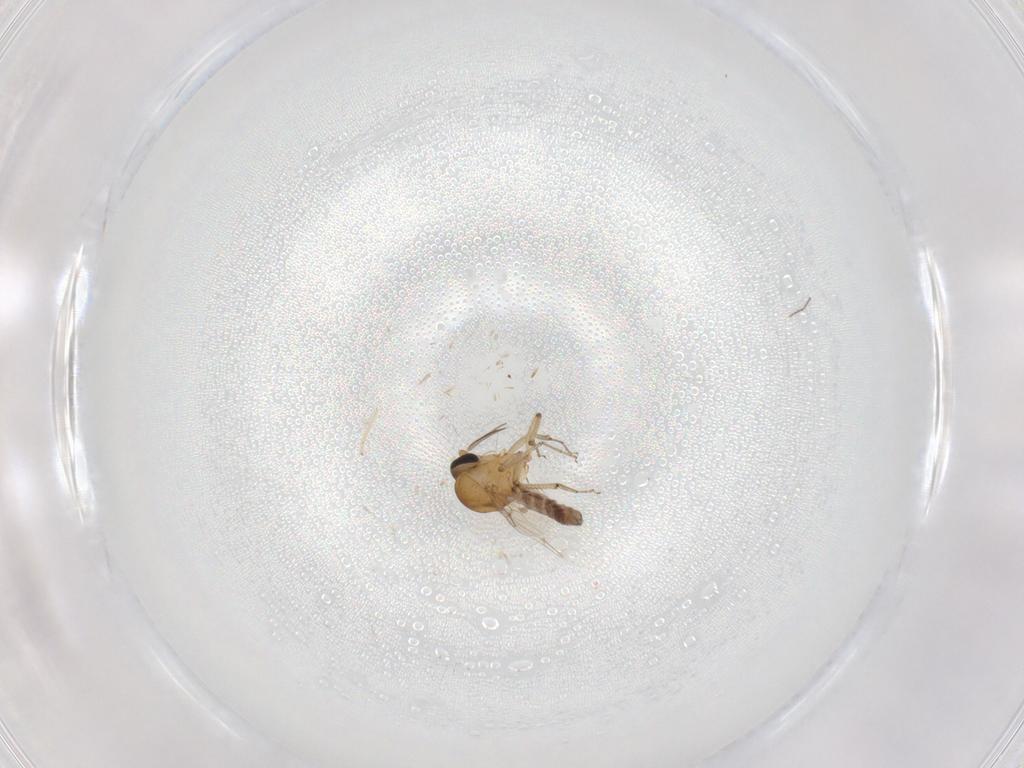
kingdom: Animalia
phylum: Arthropoda
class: Insecta
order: Diptera
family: Ceratopogonidae
